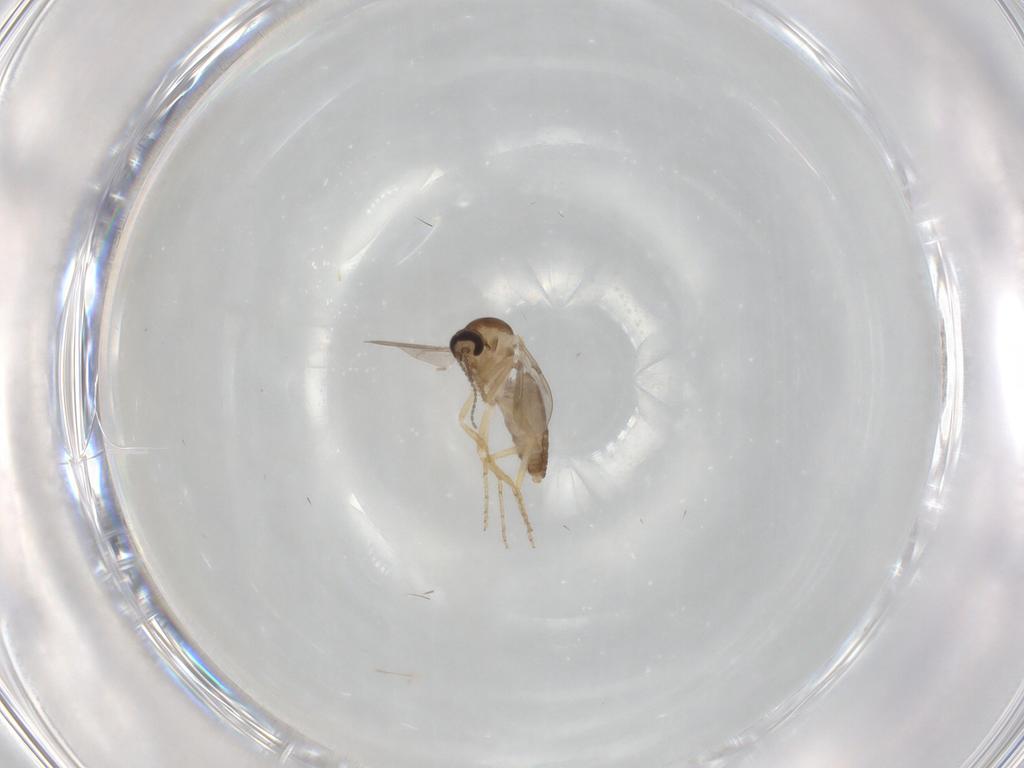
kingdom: Animalia
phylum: Arthropoda
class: Insecta
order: Diptera
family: Ceratopogonidae
